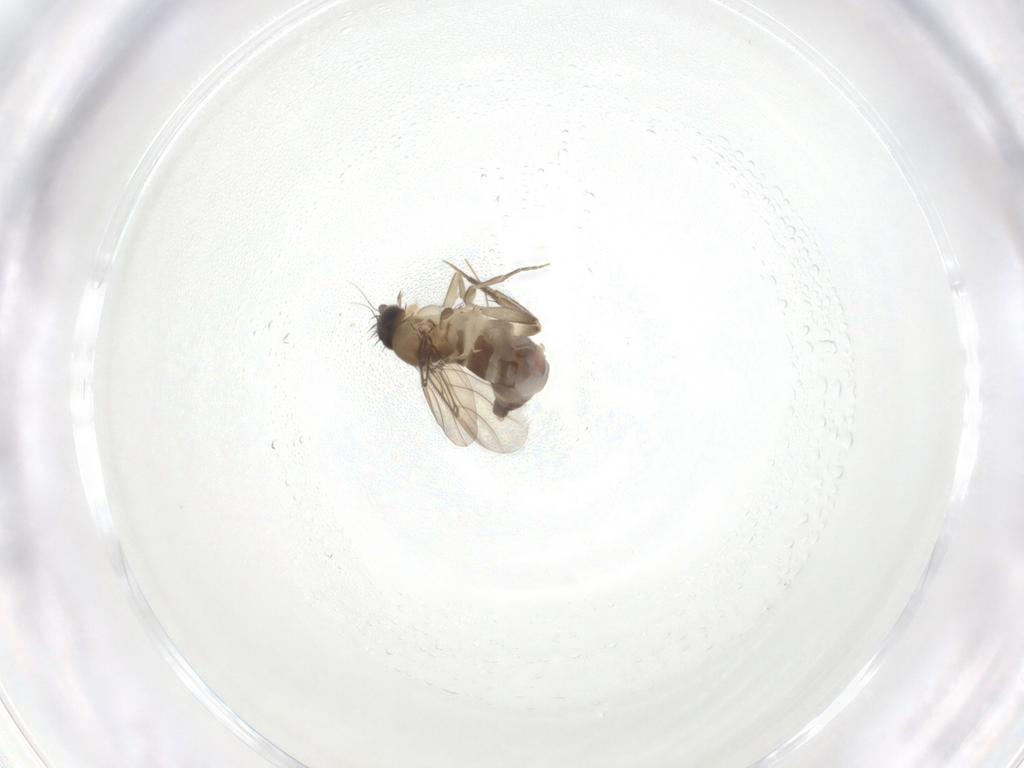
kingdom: Animalia
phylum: Arthropoda
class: Insecta
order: Diptera
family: Phoridae
